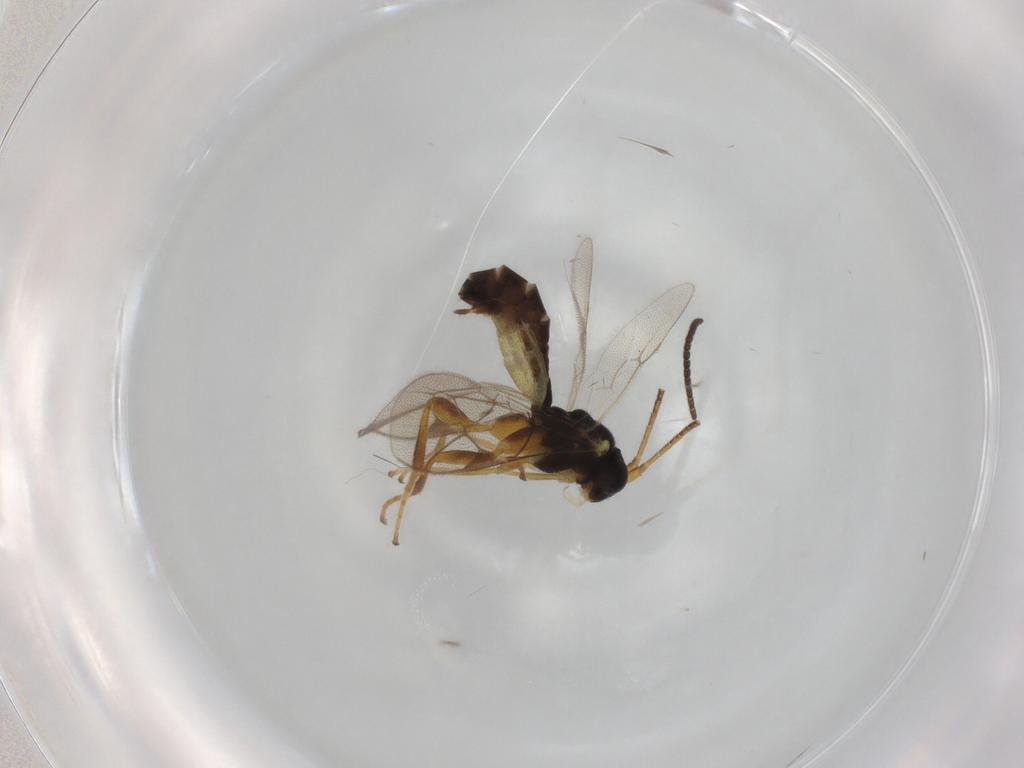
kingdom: Animalia
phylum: Arthropoda
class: Insecta
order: Hymenoptera
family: Ichneumonidae
